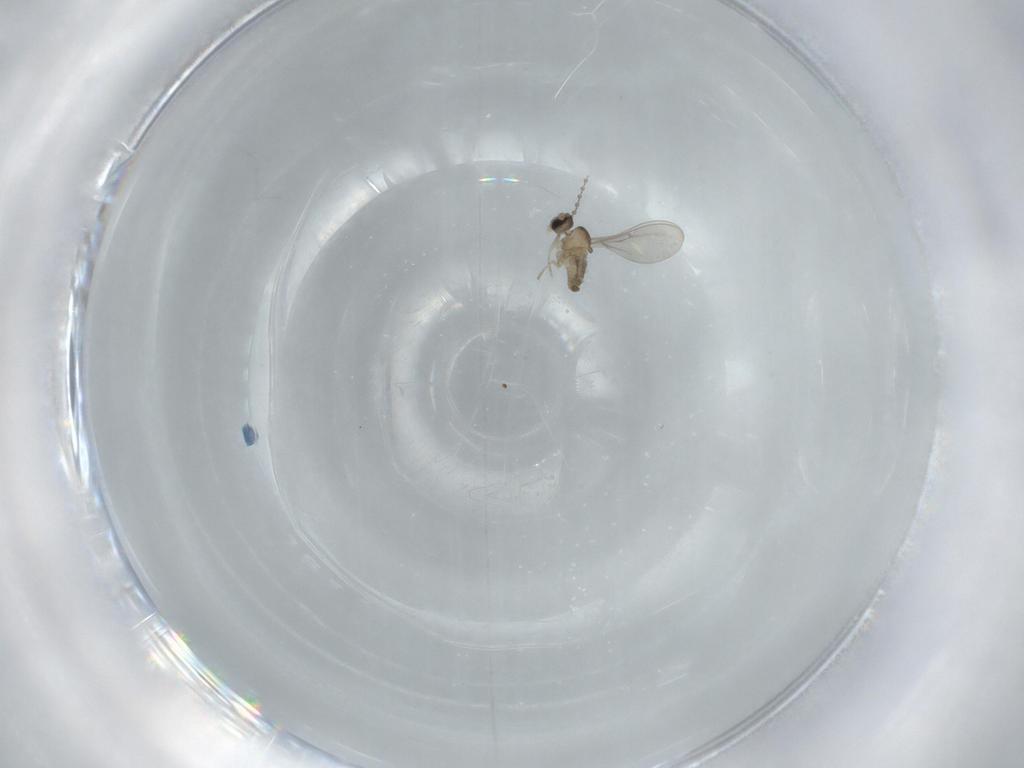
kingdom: Animalia
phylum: Arthropoda
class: Insecta
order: Diptera
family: Cecidomyiidae
